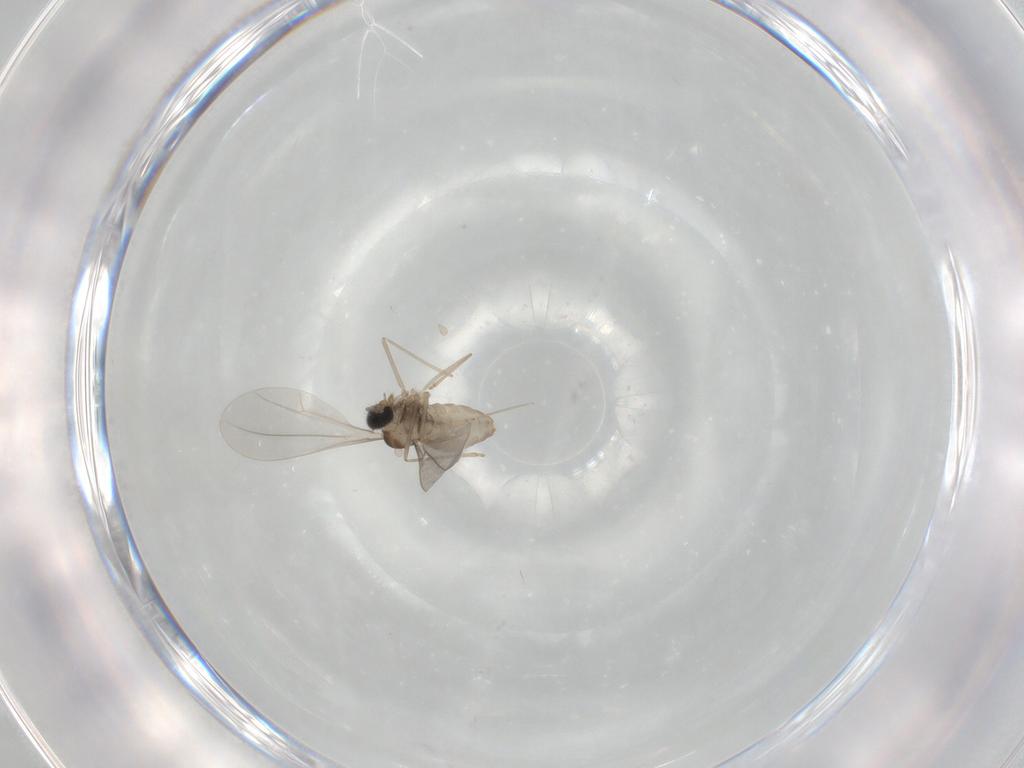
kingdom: Animalia
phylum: Arthropoda
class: Insecta
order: Diptera
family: Cecidomyiidae
